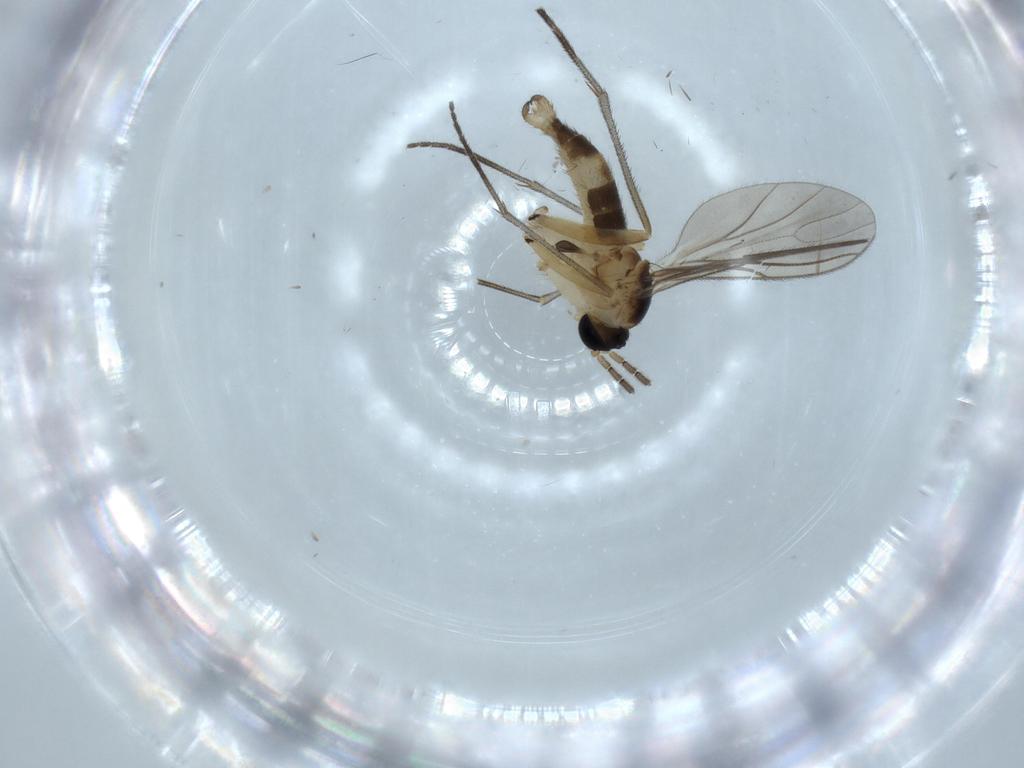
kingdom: Animalia
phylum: Arthropoda
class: Insecta
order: Diptera
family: Sciaridae
